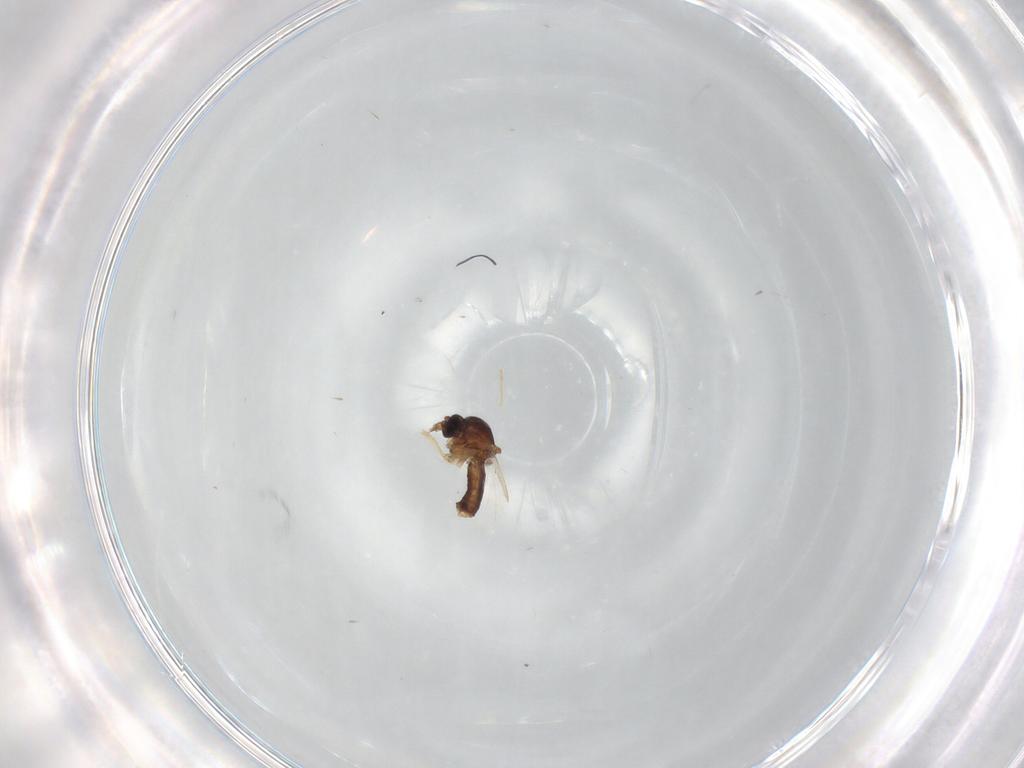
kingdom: Animalia
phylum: Arthropoda
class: Insecta
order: Diptera
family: Ceratopogonidae
